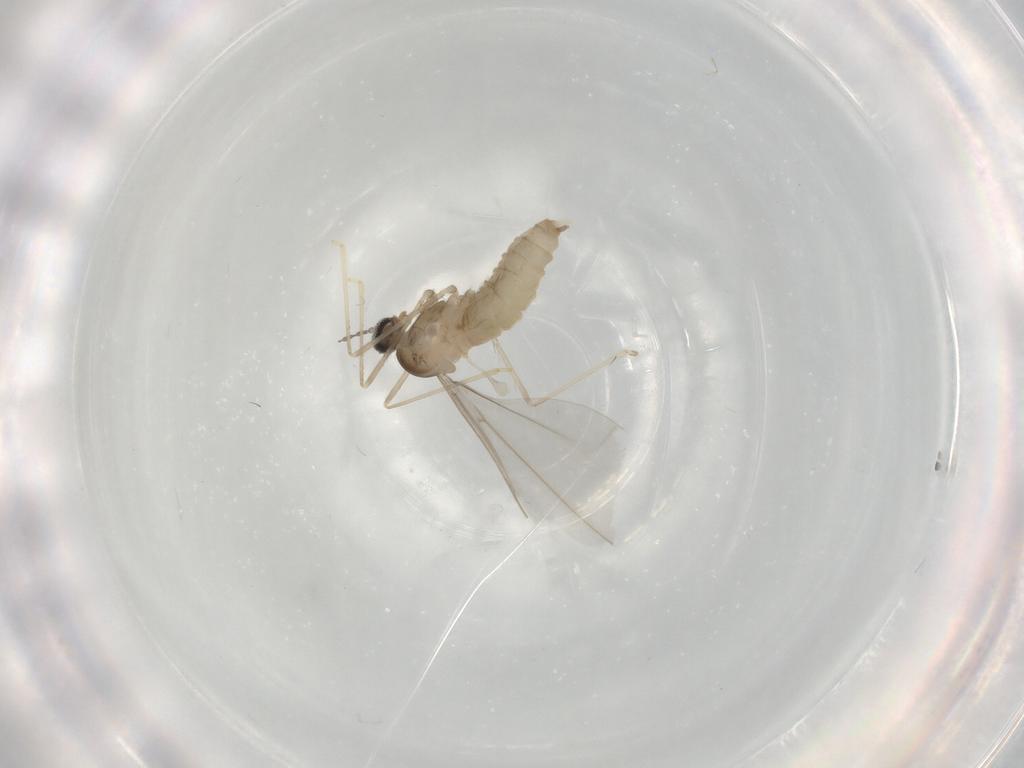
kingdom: Animalia
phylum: Arthropoda
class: Insecta
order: Diptera
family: Cecidomyiidae
